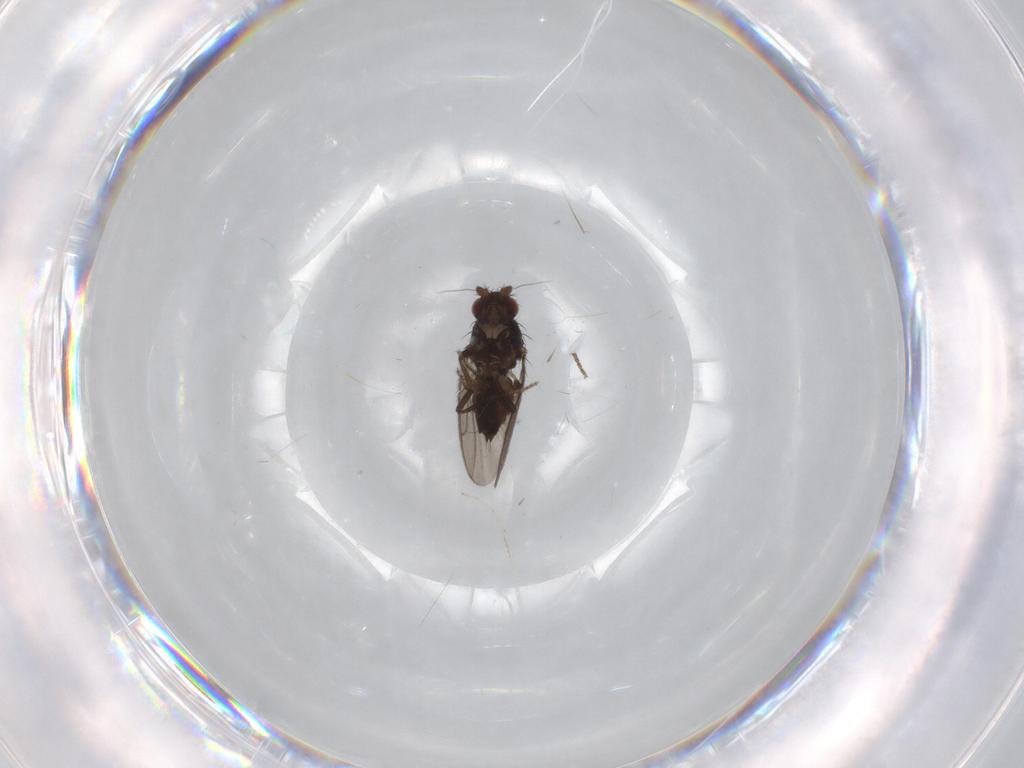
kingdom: Animalia
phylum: Arthropoda
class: Insecta
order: Diptera
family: Sphaeroceridae
